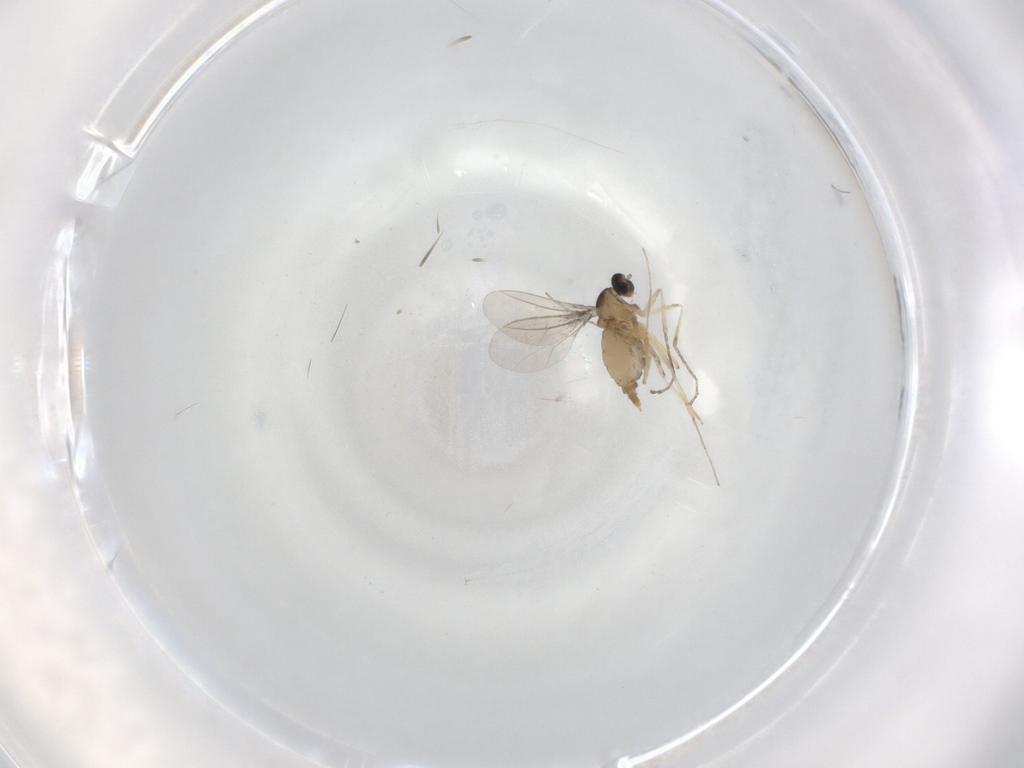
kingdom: Animalia
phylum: Arthropoda
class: Insecta
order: Diptera
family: Cecidomyiidae
